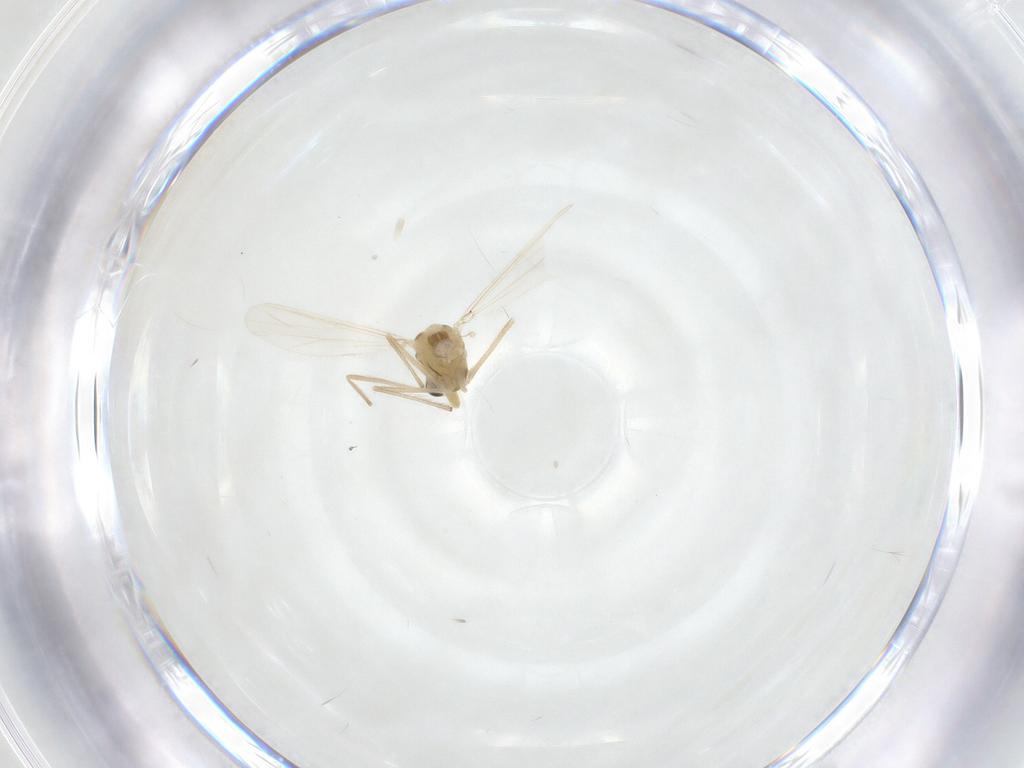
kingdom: Animalia
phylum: Arthropoda
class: Insecta
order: Diptera
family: Chironomidae
